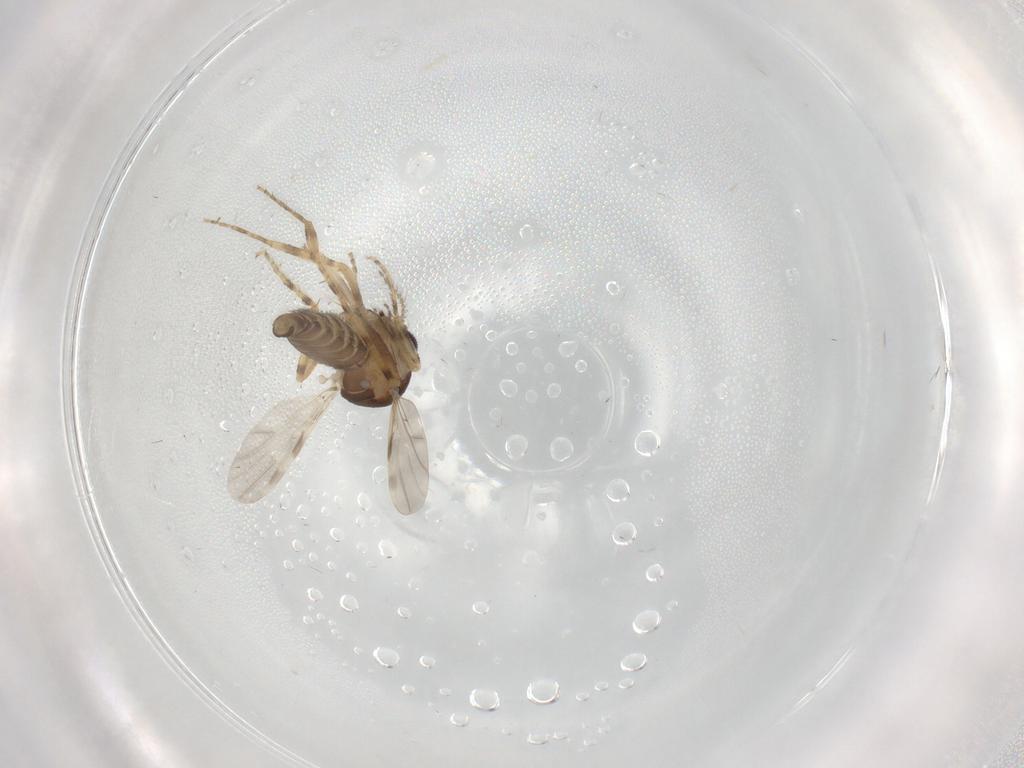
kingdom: Animalia
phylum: Arthropoda
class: Insecta
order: Diptera
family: Ceratopogonidae
